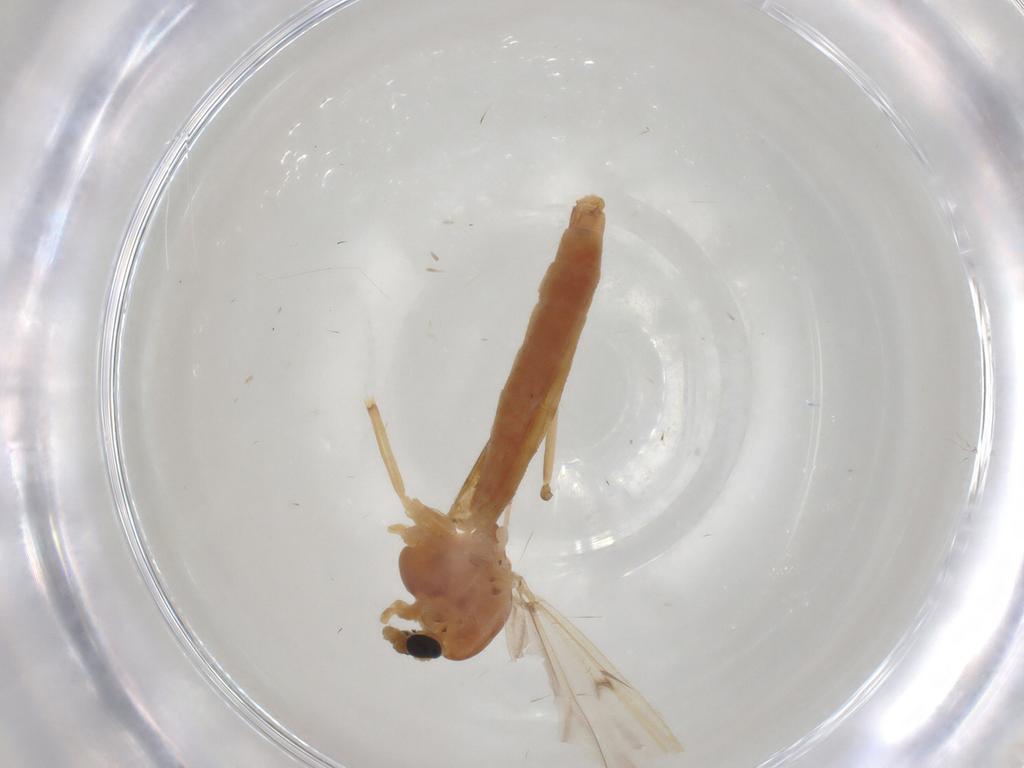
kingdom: Animalia
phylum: Arthropoda
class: Insecta
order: Diptera
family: Chironomidae
